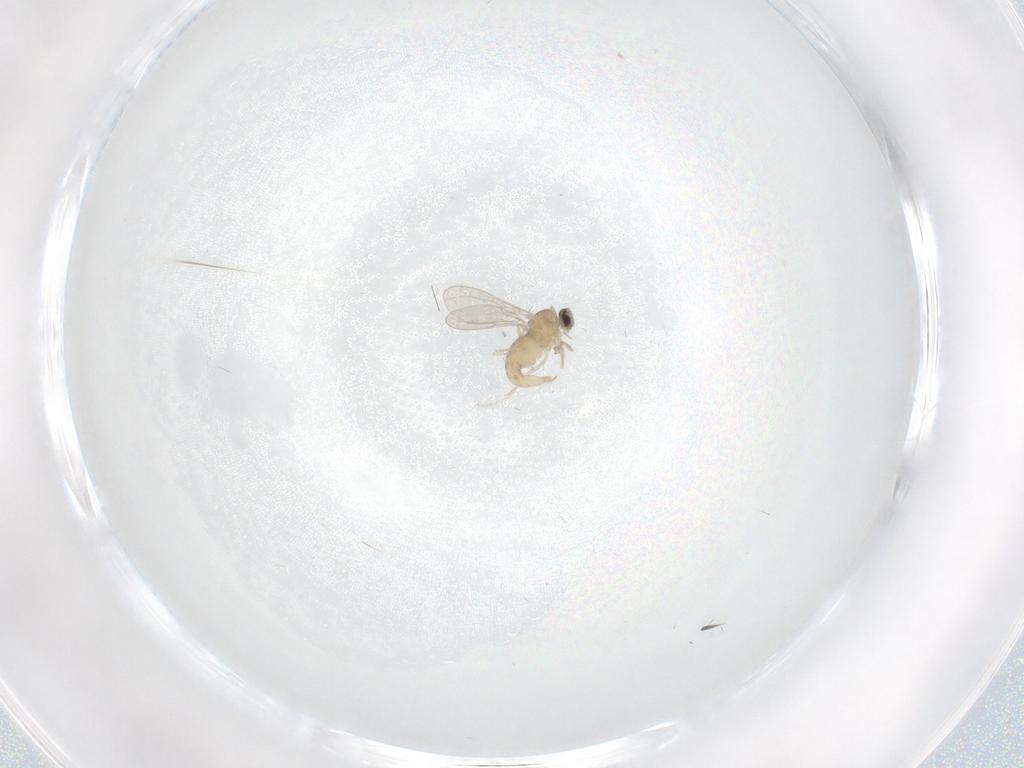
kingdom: Animalia
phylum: Arthropoda
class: Insecta
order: Diptera
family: Cecidomyiidae
